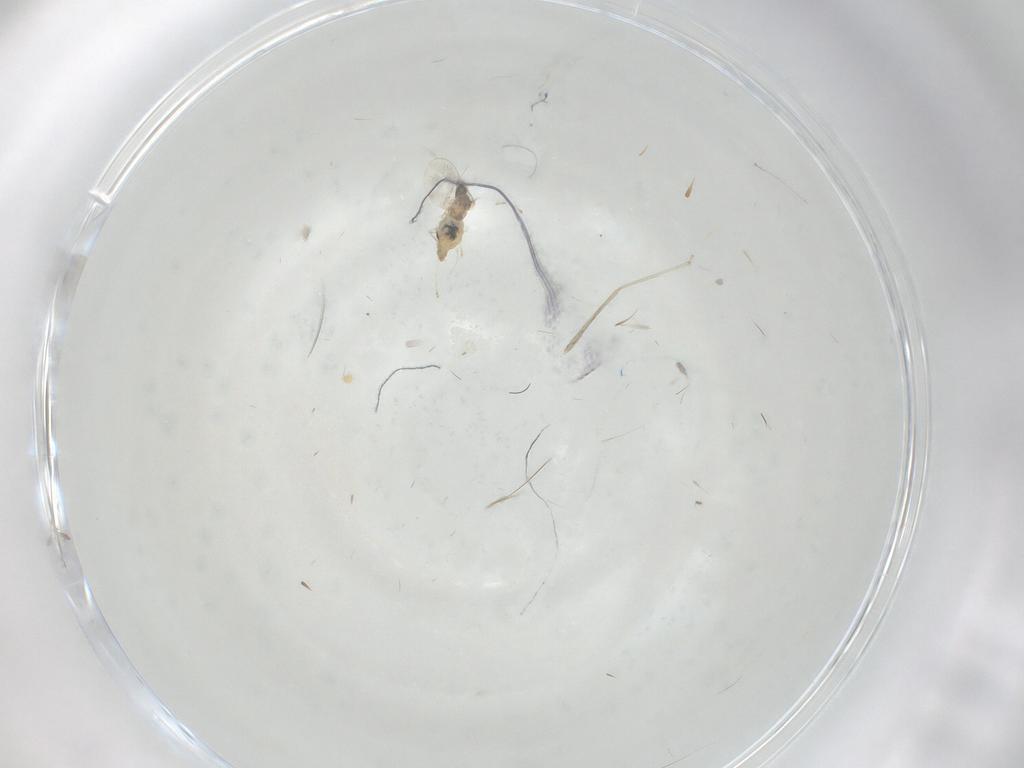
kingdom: Animalia
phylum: Arthropoda
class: Insecta
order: Diptera
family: Ceratopogonidae
